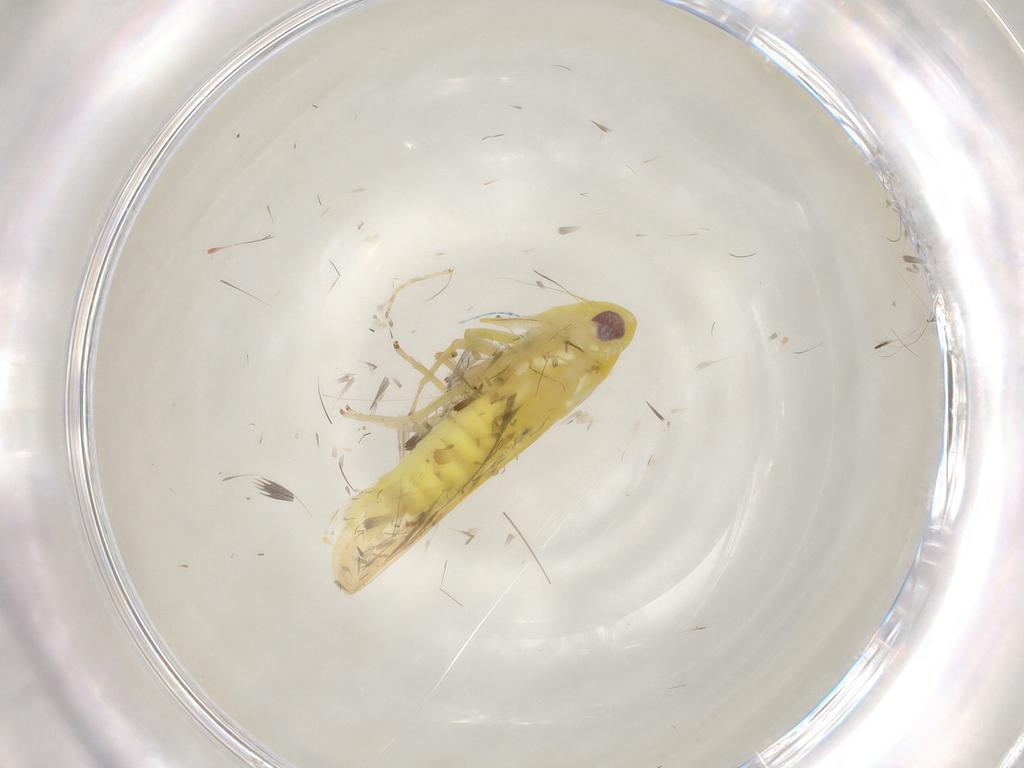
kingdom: Animalia
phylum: Arthropoda
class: Insecta
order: Hemiptera
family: Cicadellidae
